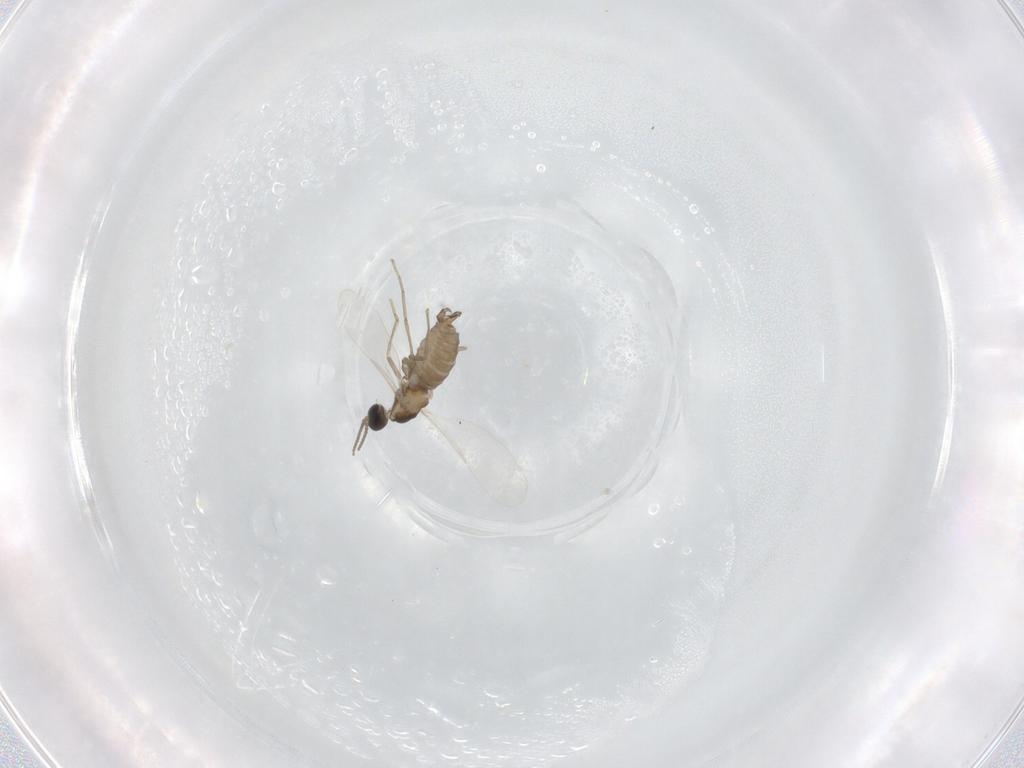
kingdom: Animalia
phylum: Arthropoda
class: Insecta
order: Diptera
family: Cecidomyiidae
